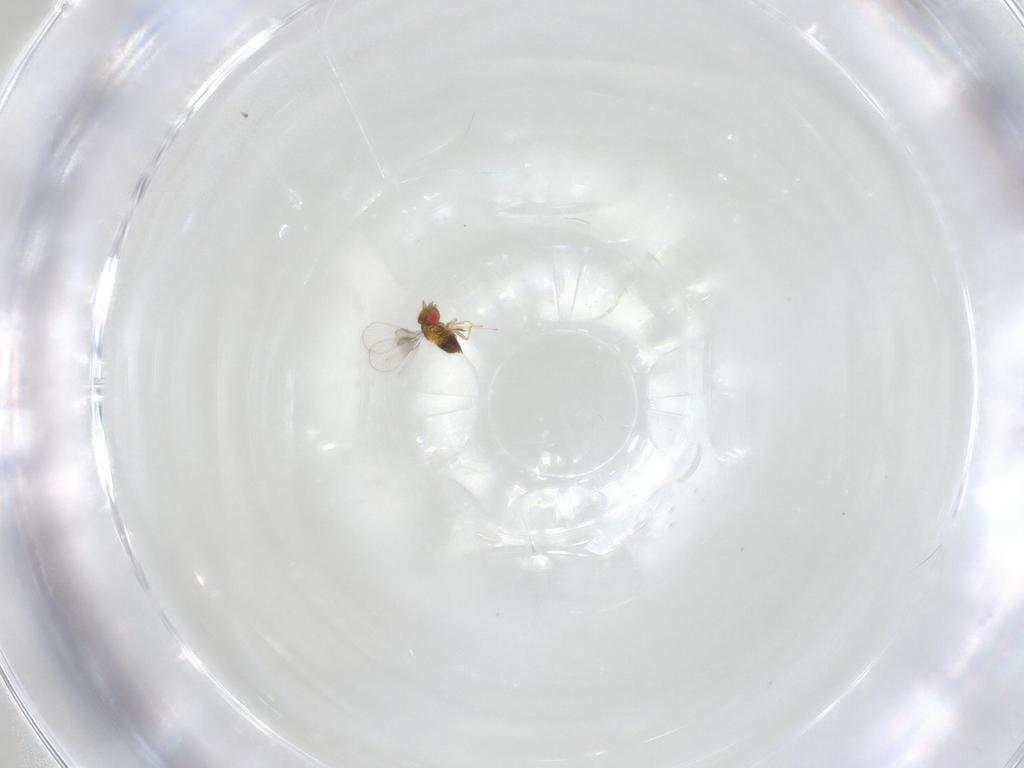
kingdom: Animalia
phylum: Arthropoda
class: Insecta
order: Hymenoptera
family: Trichogrammatidae
